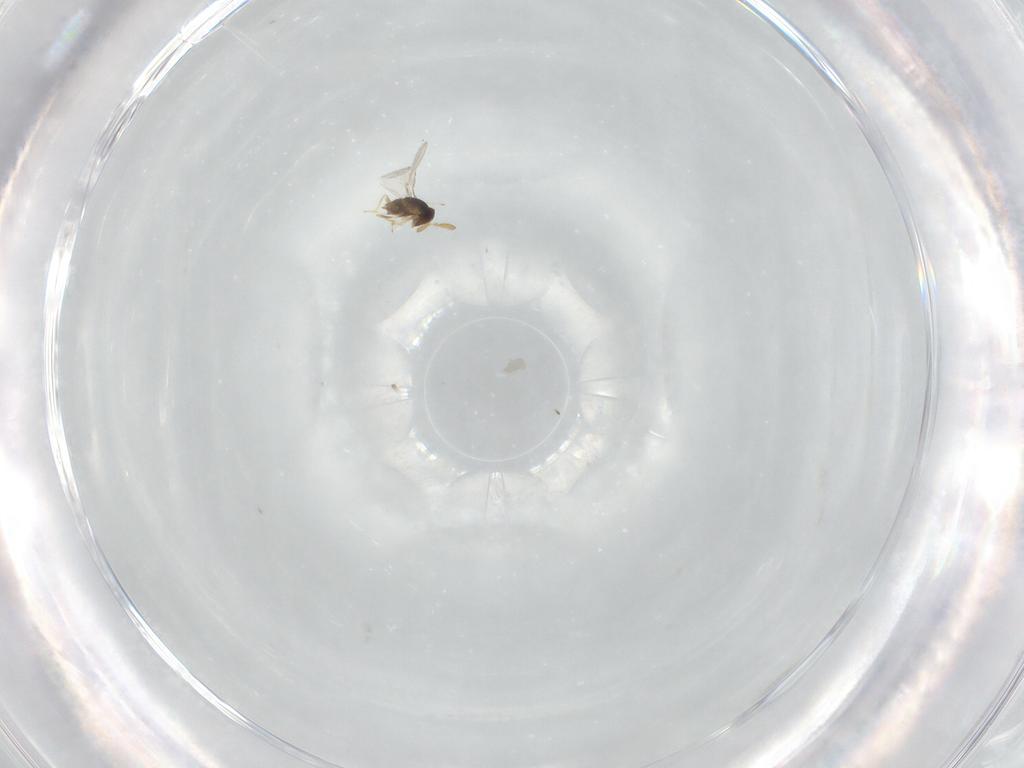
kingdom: Animalia
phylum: Arthropoda
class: Insecta
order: Hymenoptera
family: Encyrtidae
